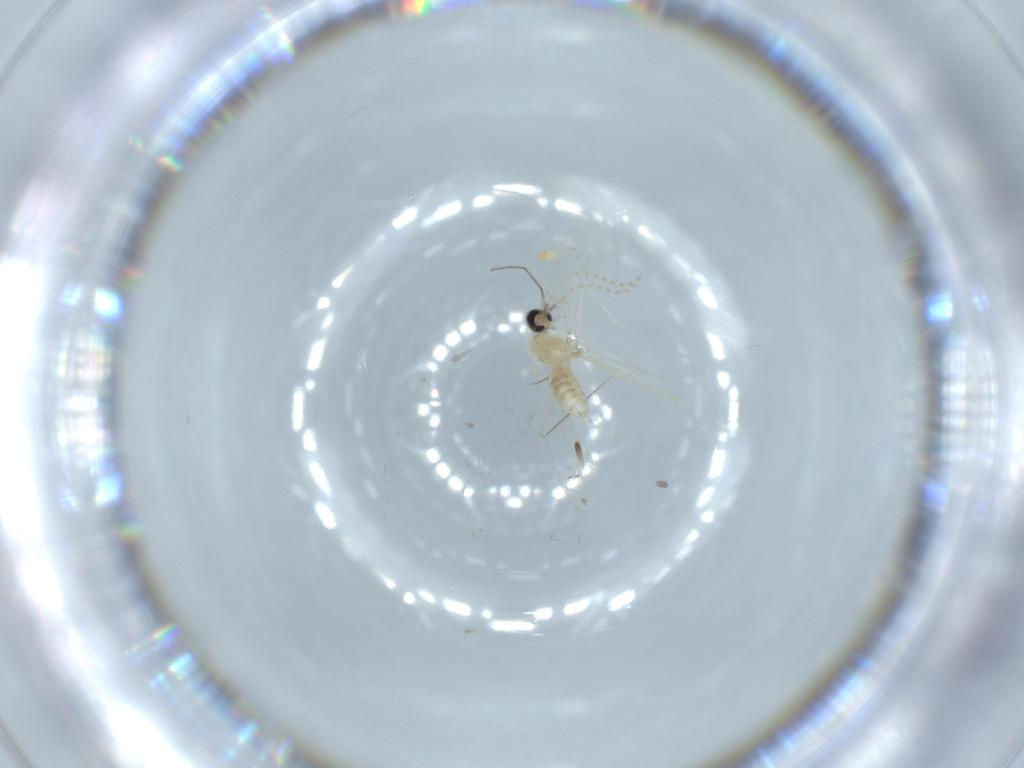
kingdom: Animalia
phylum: Arthropoda
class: Insecta
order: Diptera
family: Cecidomyiidae
